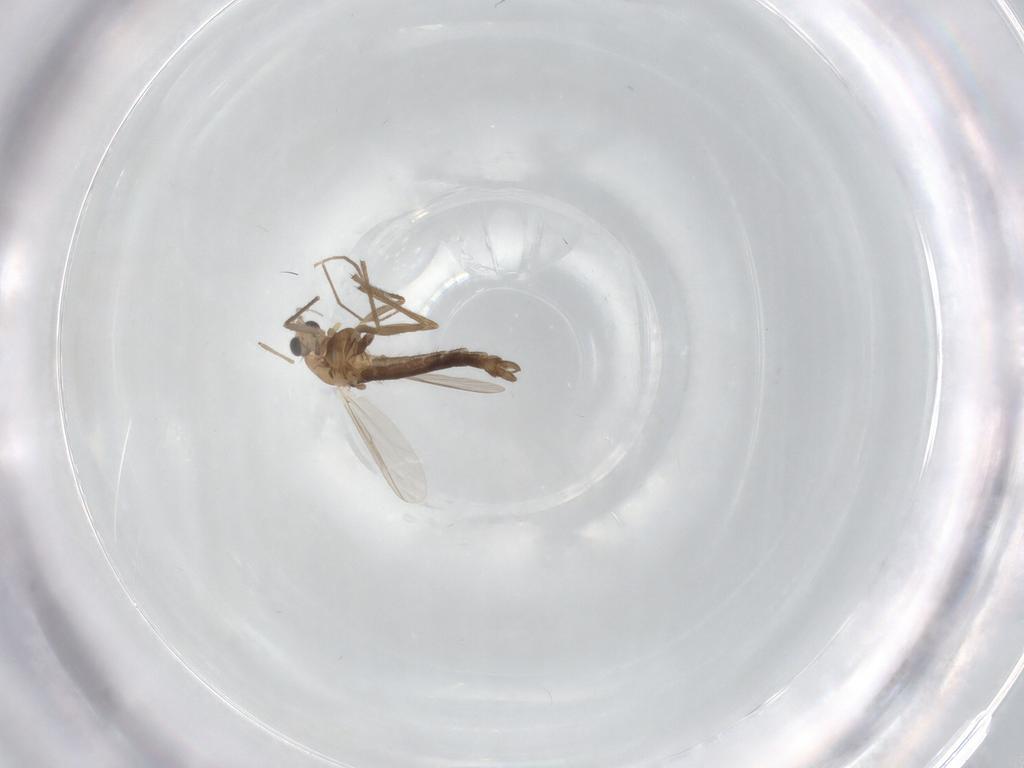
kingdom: Animalia
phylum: Arthropoda
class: Insecta
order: Diptera
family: Chironomidae
